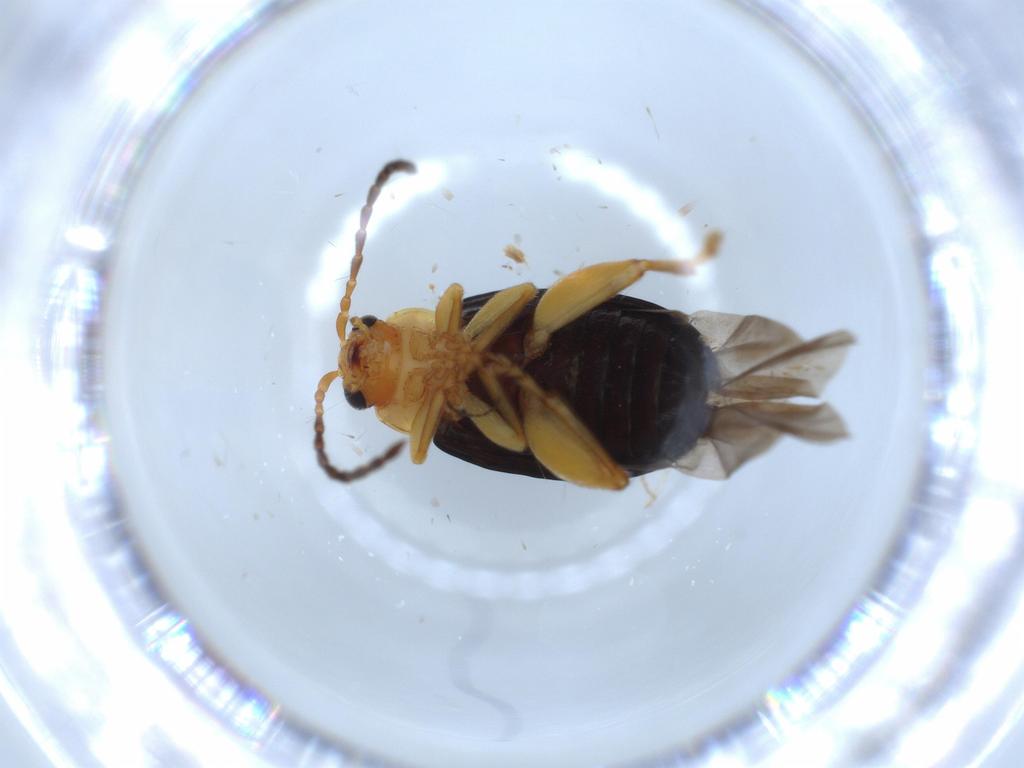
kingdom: Animalia
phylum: Arthropoda
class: Insecta
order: Coleoptera
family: Chrysomelidae
